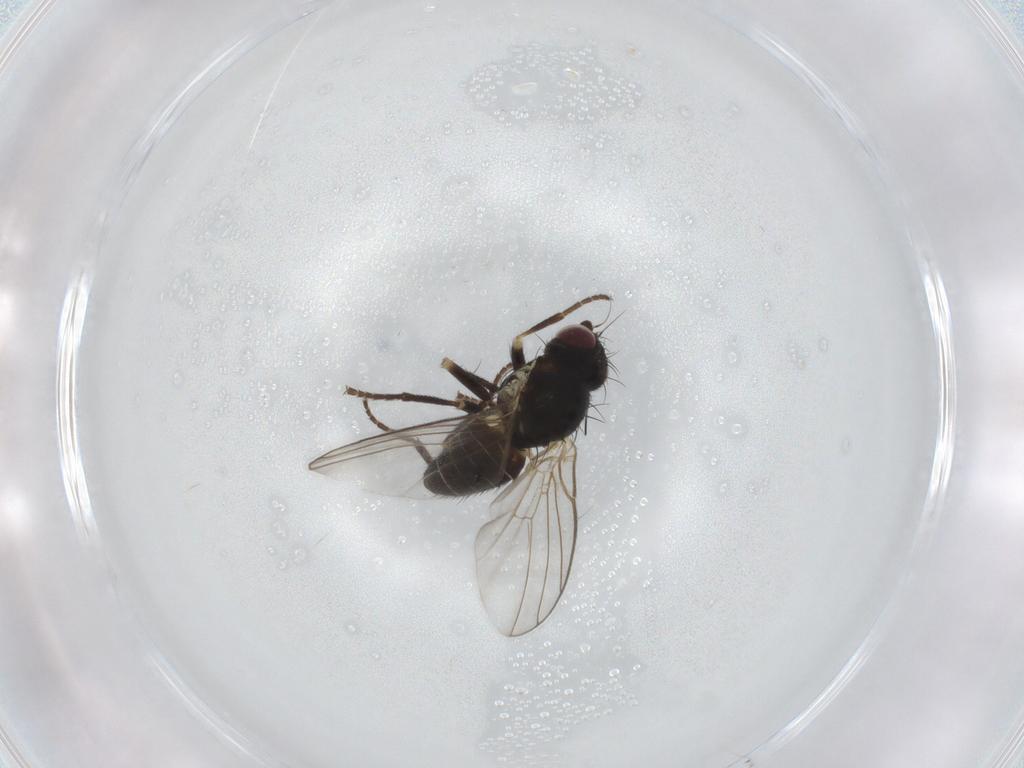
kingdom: Animalia
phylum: Arthropoda
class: Insecta
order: Diptera
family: Agromyzidae
